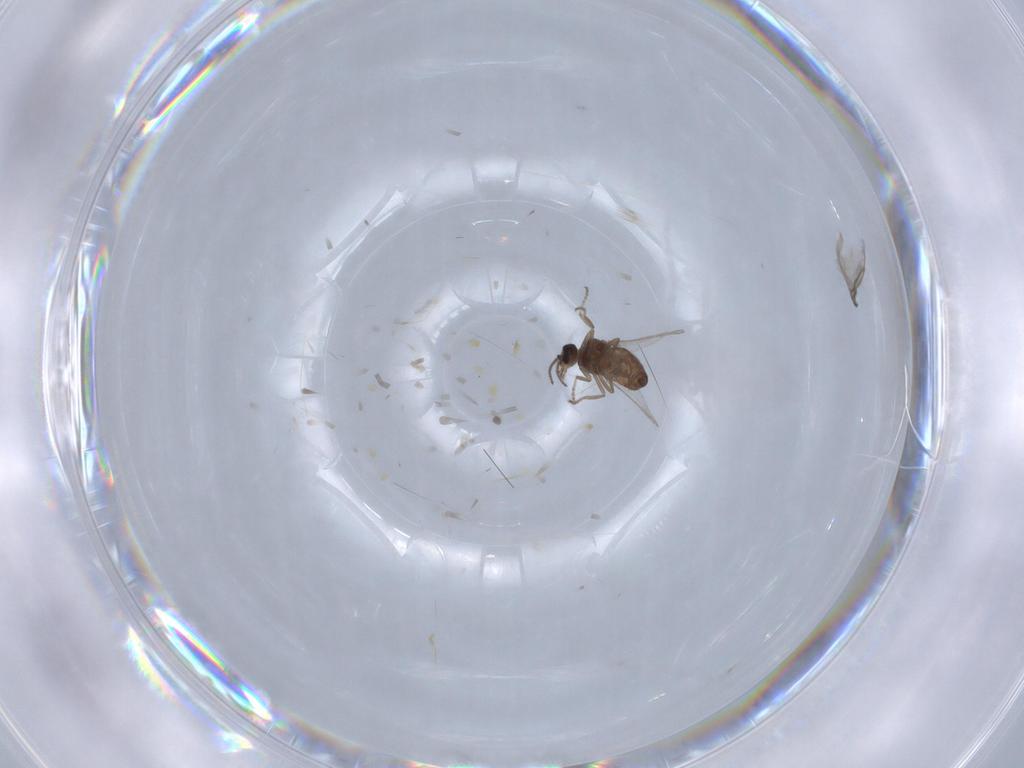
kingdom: Animalia
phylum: Arthropoda
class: Insecta
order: Diptera
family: Ceratopogonidae
